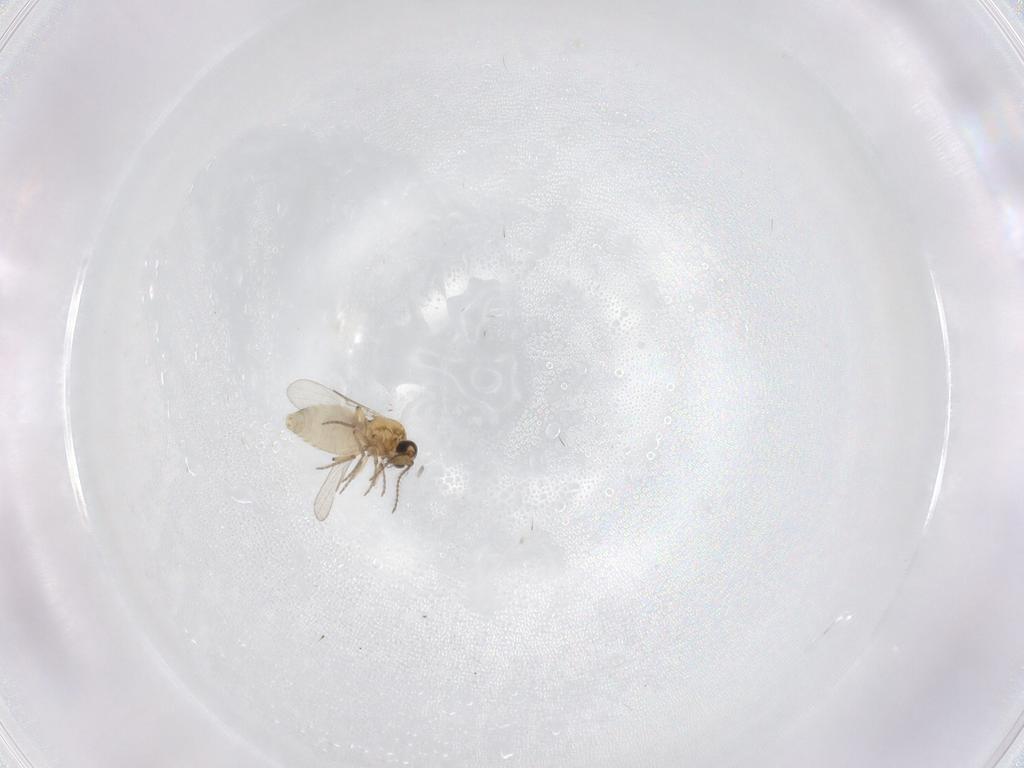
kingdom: Animalia
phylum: Arthropoda
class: Insecta
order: Diptera
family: Ceratopogonidae
